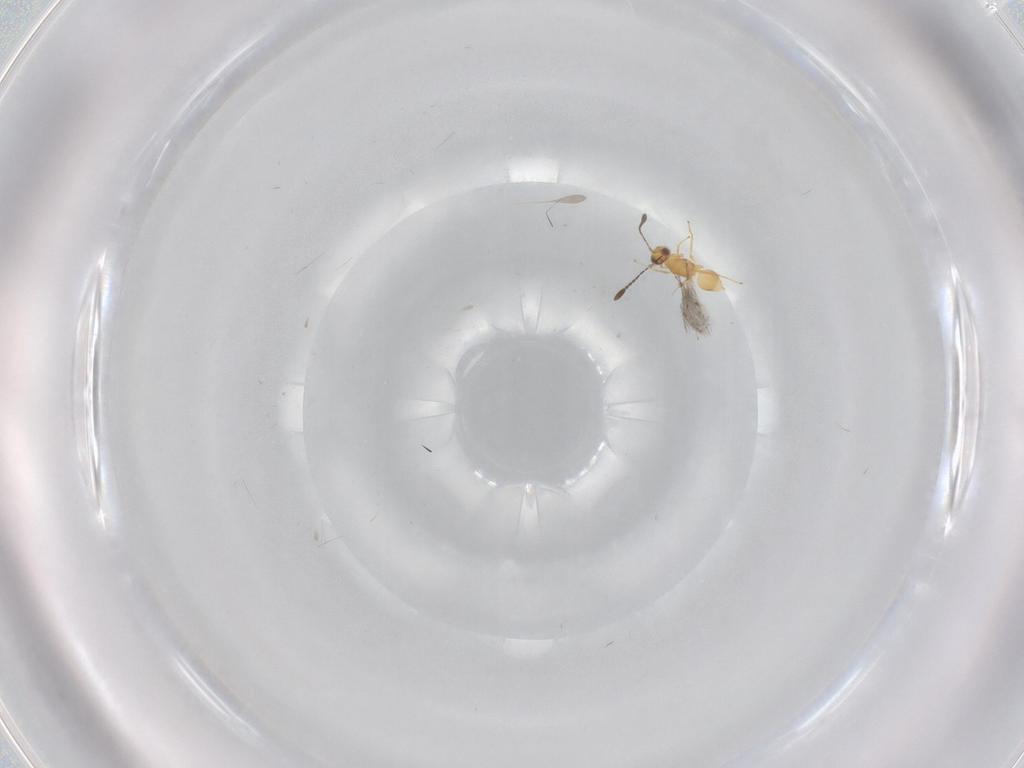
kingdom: Animalia
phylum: Arthropoda
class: Insecta
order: Hymenoptera
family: Mymaridae
